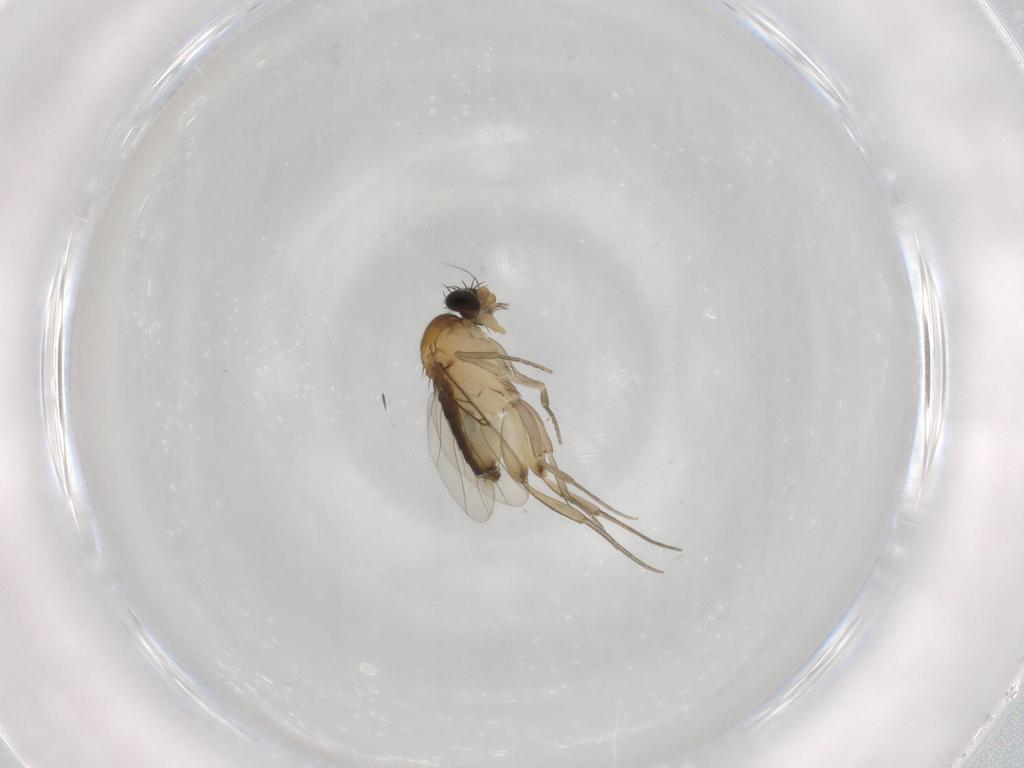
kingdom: Animalia
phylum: Arthropoda
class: Insecta
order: Diptera
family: Phoridae
